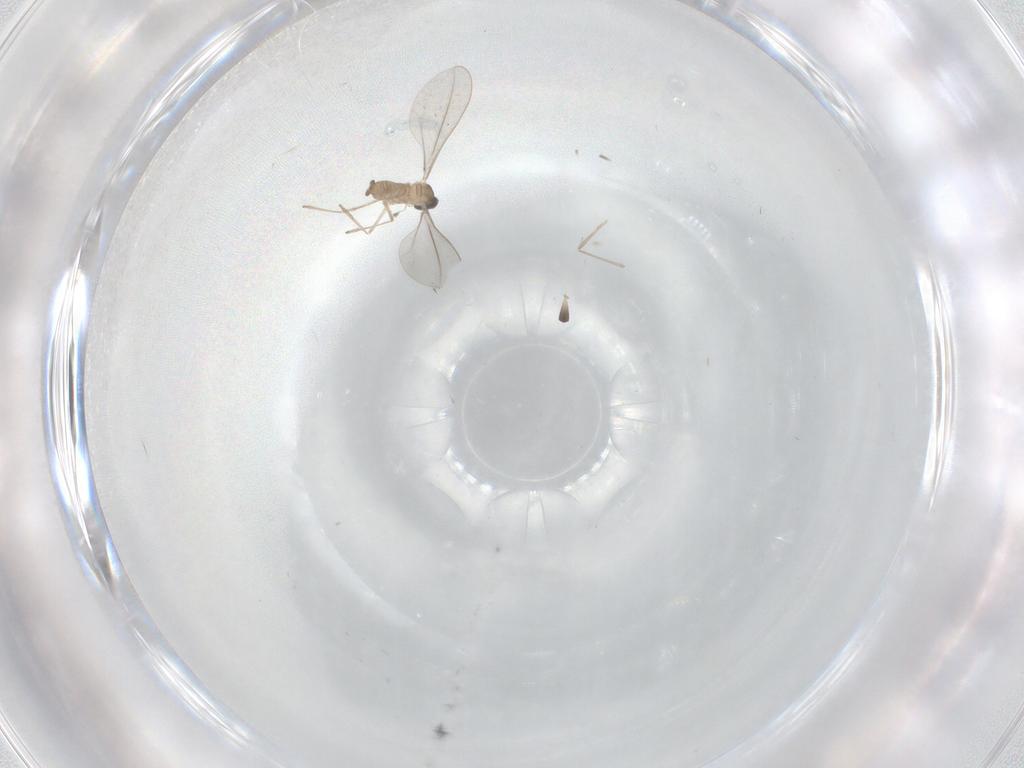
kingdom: Animalia
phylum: Arthropoda
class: Insecta
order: Diptera
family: Cecidomyiidae
